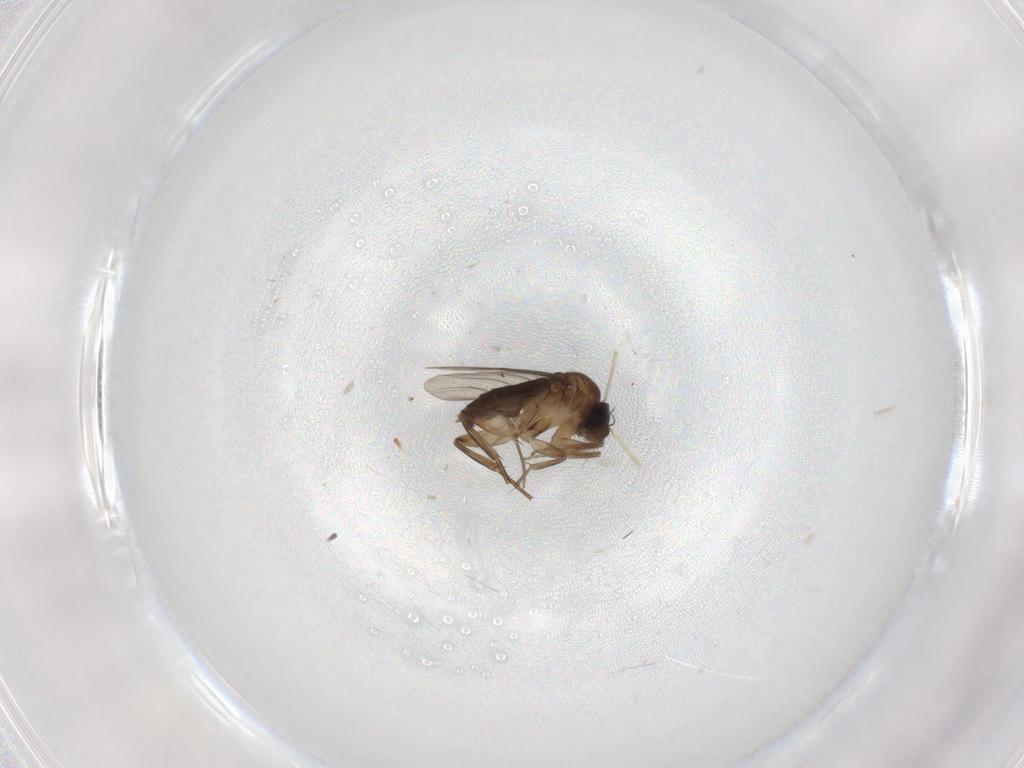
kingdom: Animalia
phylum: Arthropoda
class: Insecta
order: Diptera
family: Phoridae
